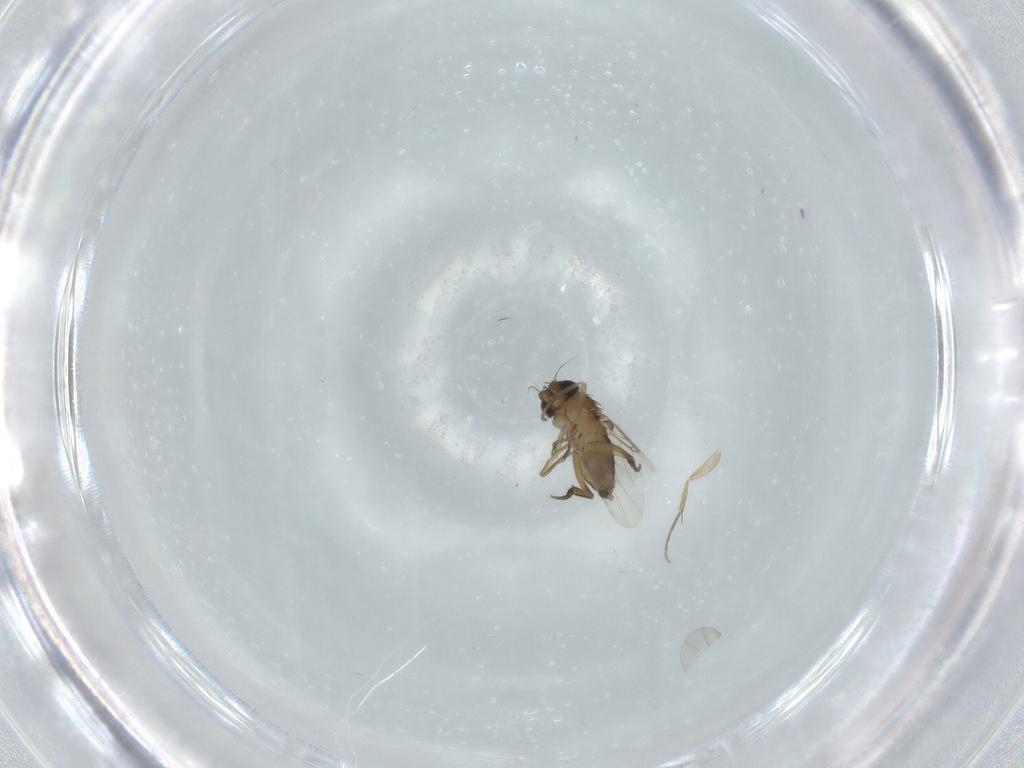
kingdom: Animalia
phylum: Arthropoda
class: Insecta
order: Diptera
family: Phoridae
